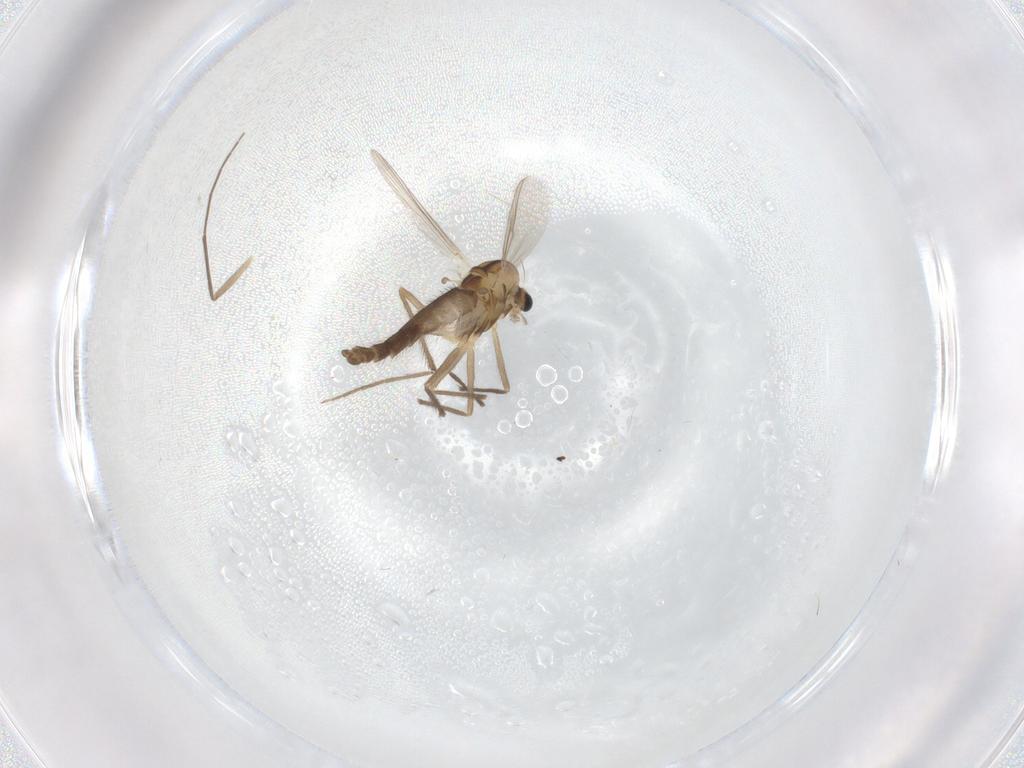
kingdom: Animalia
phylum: Arthropoda
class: Insecta
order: Diptera
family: Chironomidae
